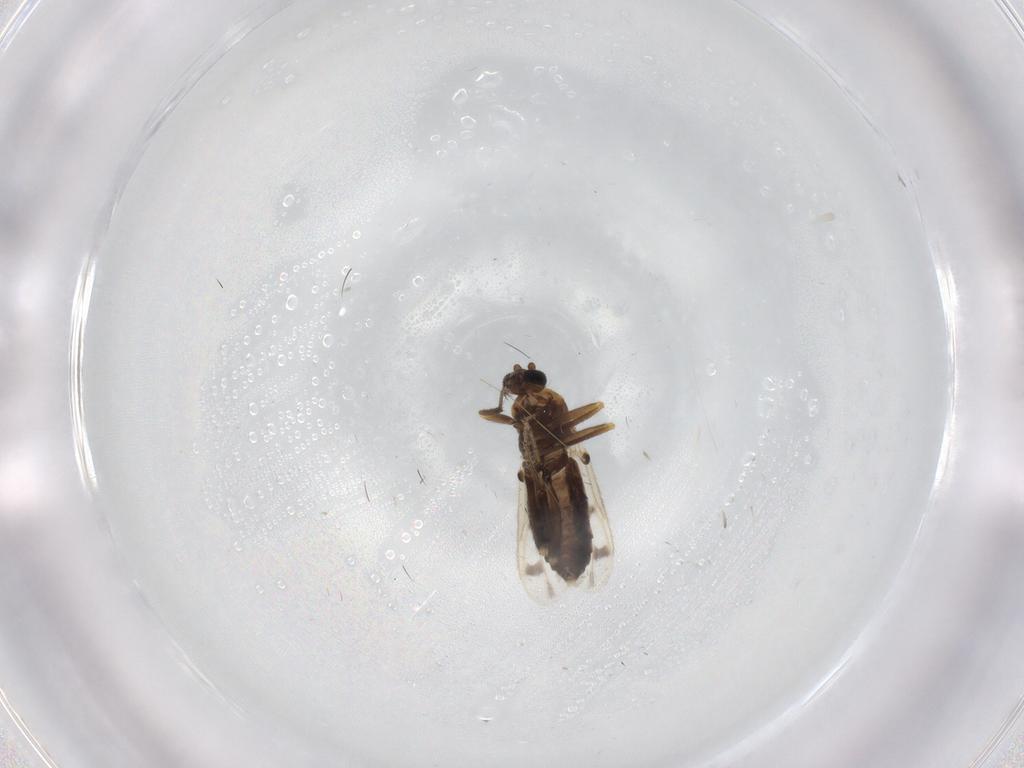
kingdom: Animalia
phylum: Arthropoda
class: Insecta
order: Diptera
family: Ceratopogonidae
